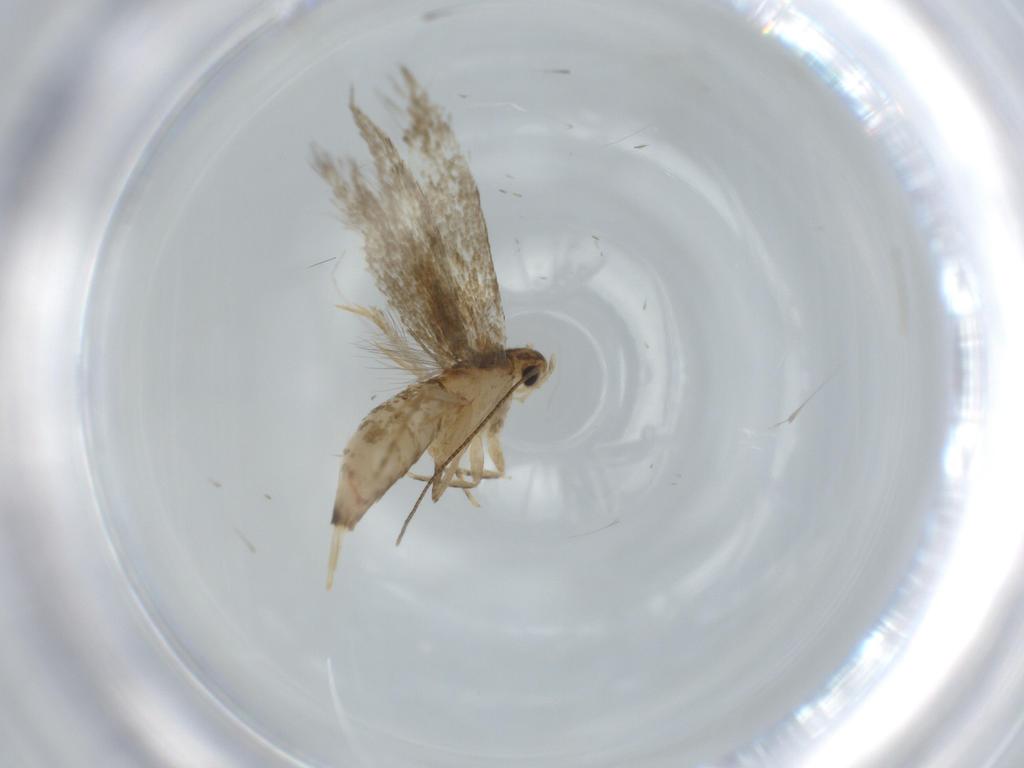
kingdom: Animalia
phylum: Arthropoda
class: Insecta
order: Lepidoptera
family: Tineidae
